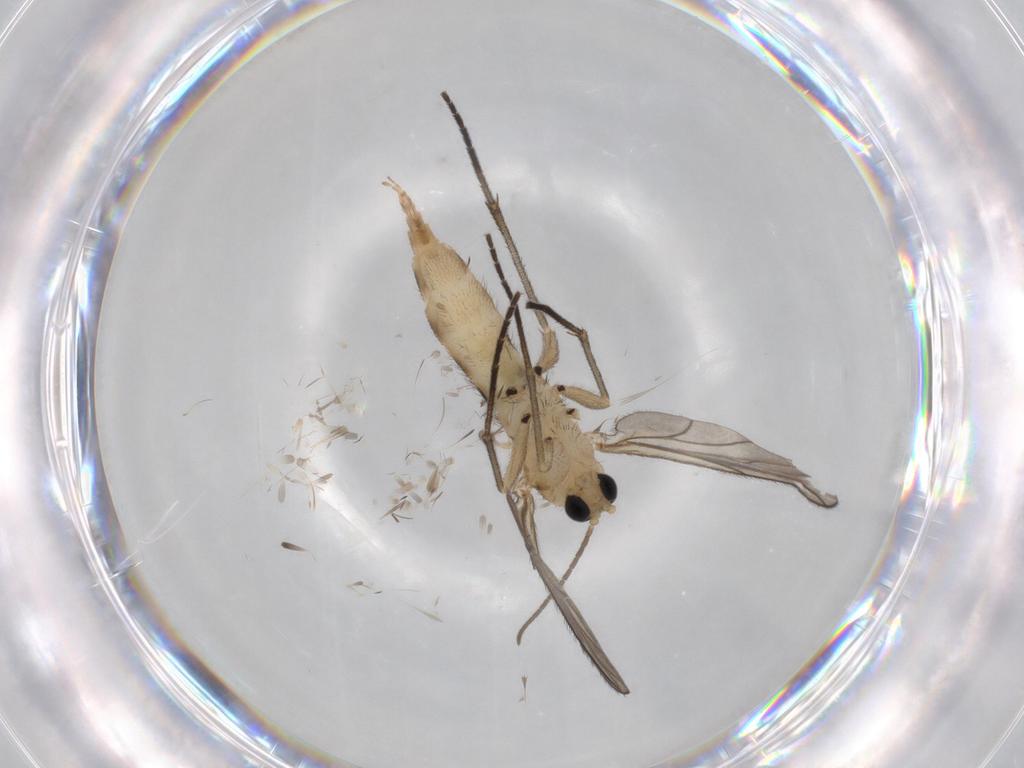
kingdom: Animalia
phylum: Arthropoda
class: Insecta
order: Diptera
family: Sciaridae
